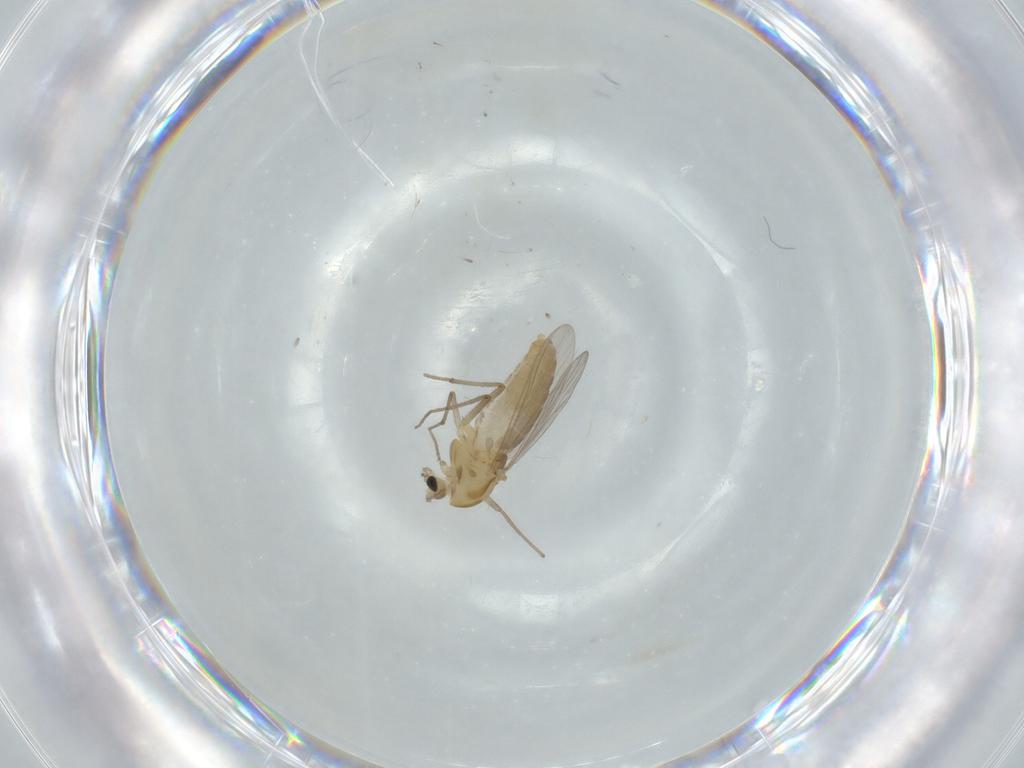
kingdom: Animalia
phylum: Arthropoda
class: Insecta
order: Diptera
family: Chironomidae
